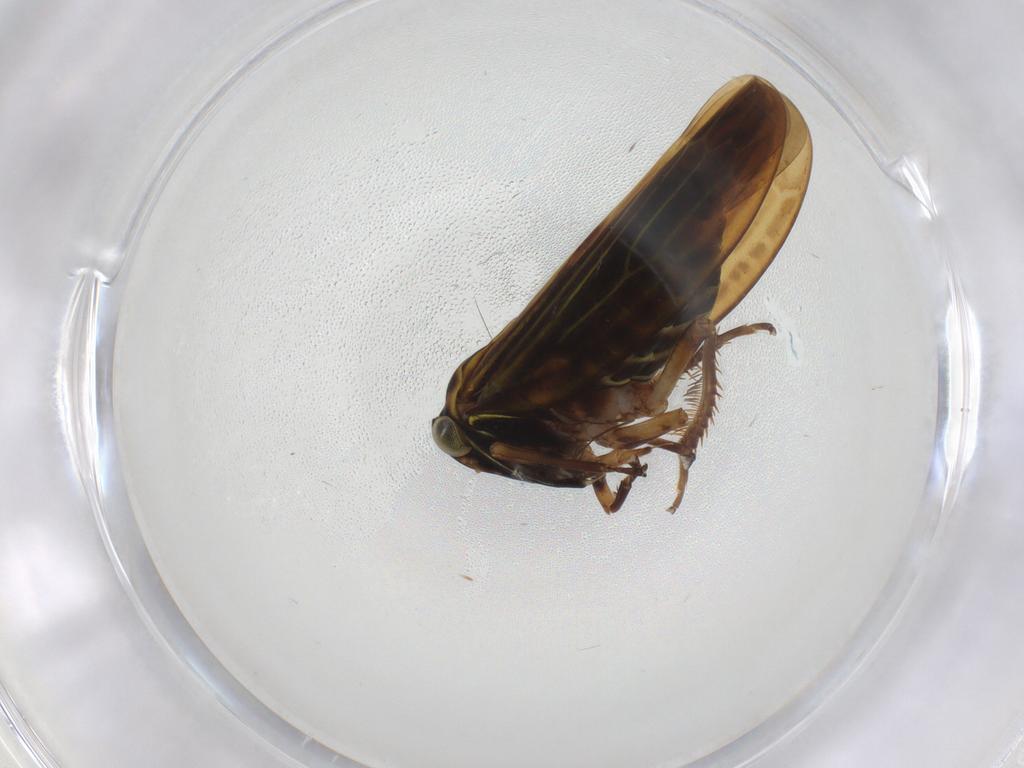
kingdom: Animalia
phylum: Arthropoda
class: Insecta
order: Hemiptera
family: Cicadellidae
